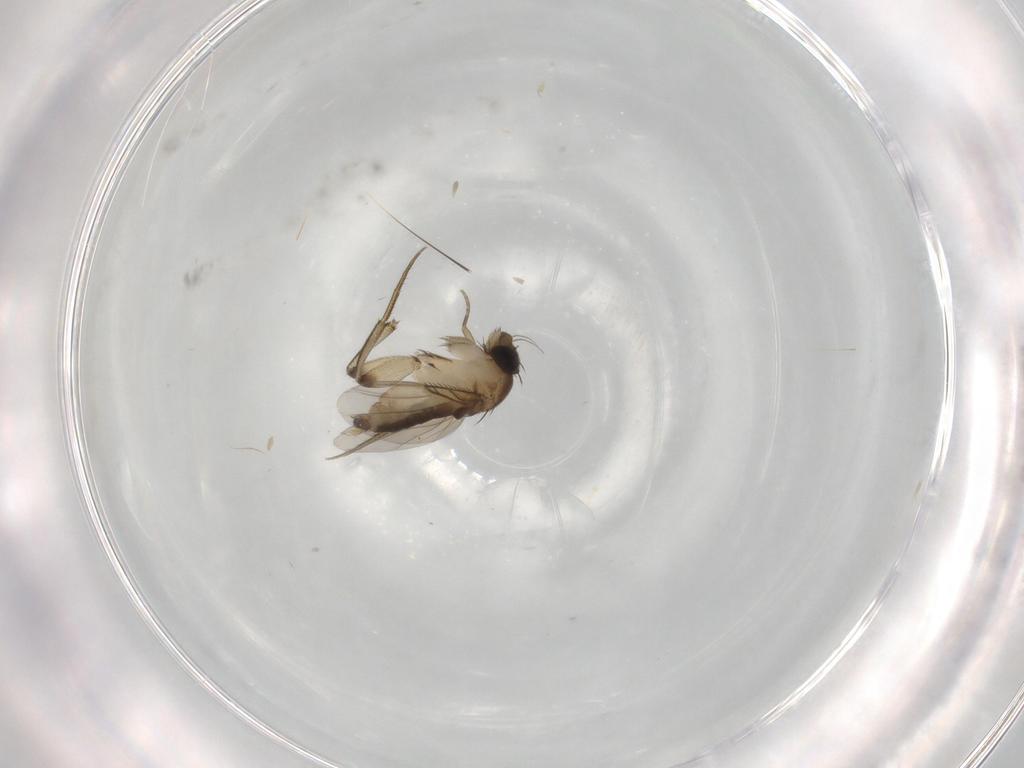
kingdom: Animalia
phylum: Arthropoda
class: Insecta
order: Diptera
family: Phoridae
